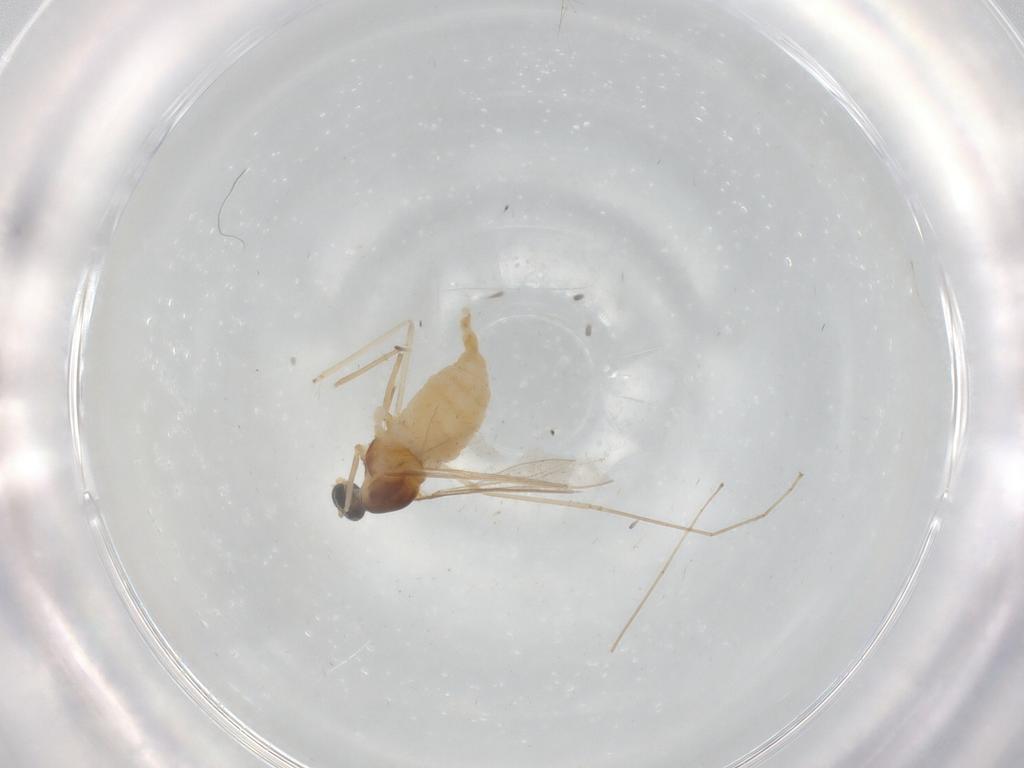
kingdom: Animalia
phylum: Arthropoda
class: Insecta
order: Diptera
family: Cecidomyiidae
